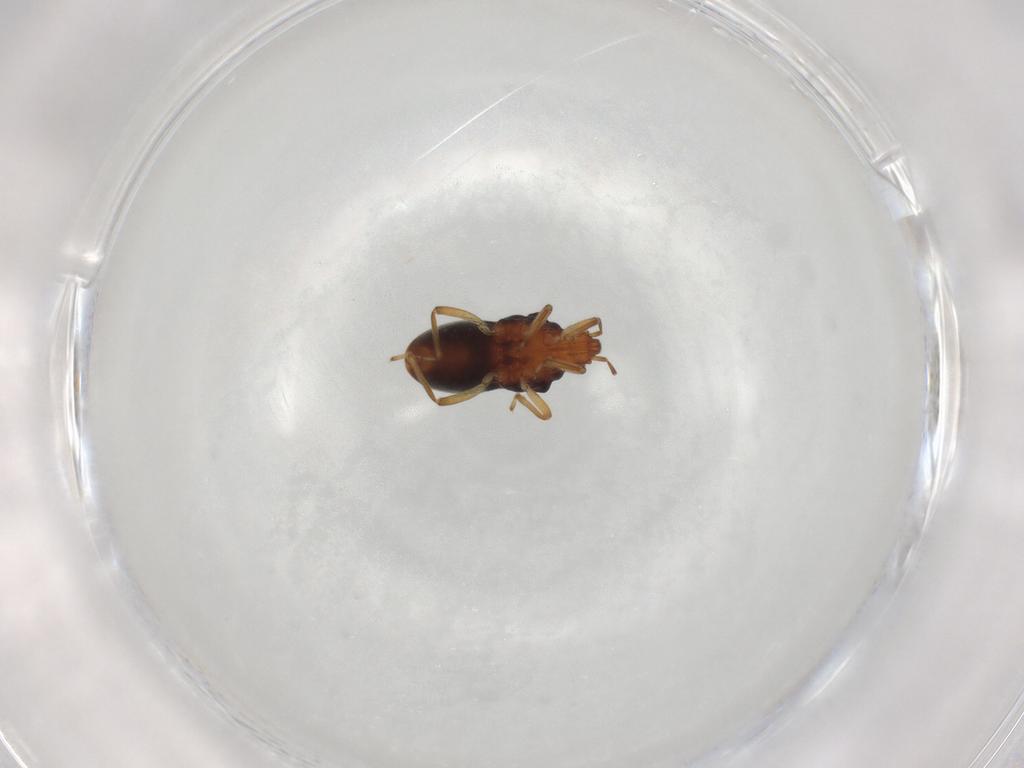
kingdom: Animalia
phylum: Arthropoda
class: Insecta
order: Hemiptera
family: Hebridae
